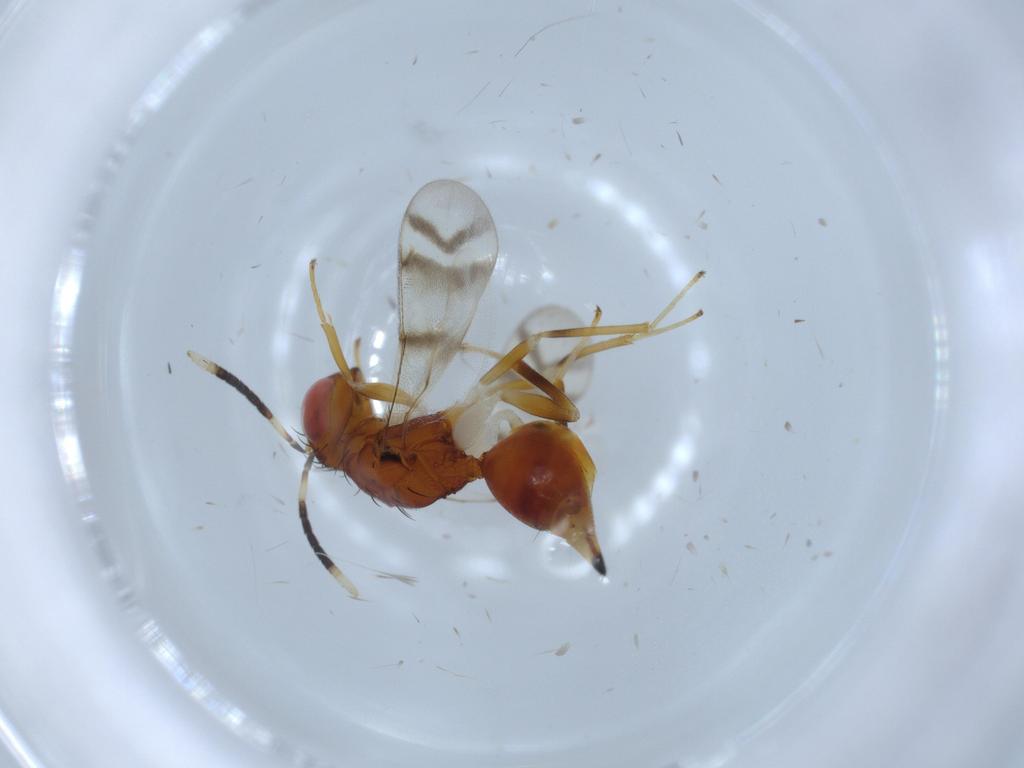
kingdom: Animalia
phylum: Arthropoda
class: Insecta
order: Hymenoptera
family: Diparidae
